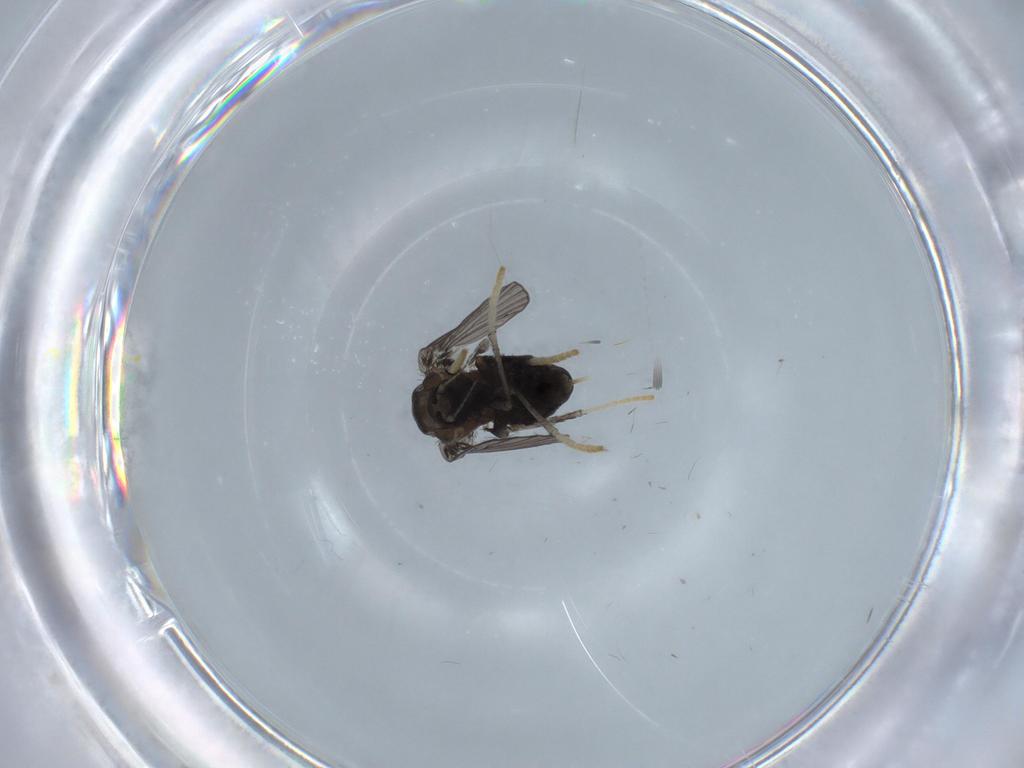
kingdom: Animalia
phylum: Arthropoda
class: Insecta
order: Diptera
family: Psychodidae
